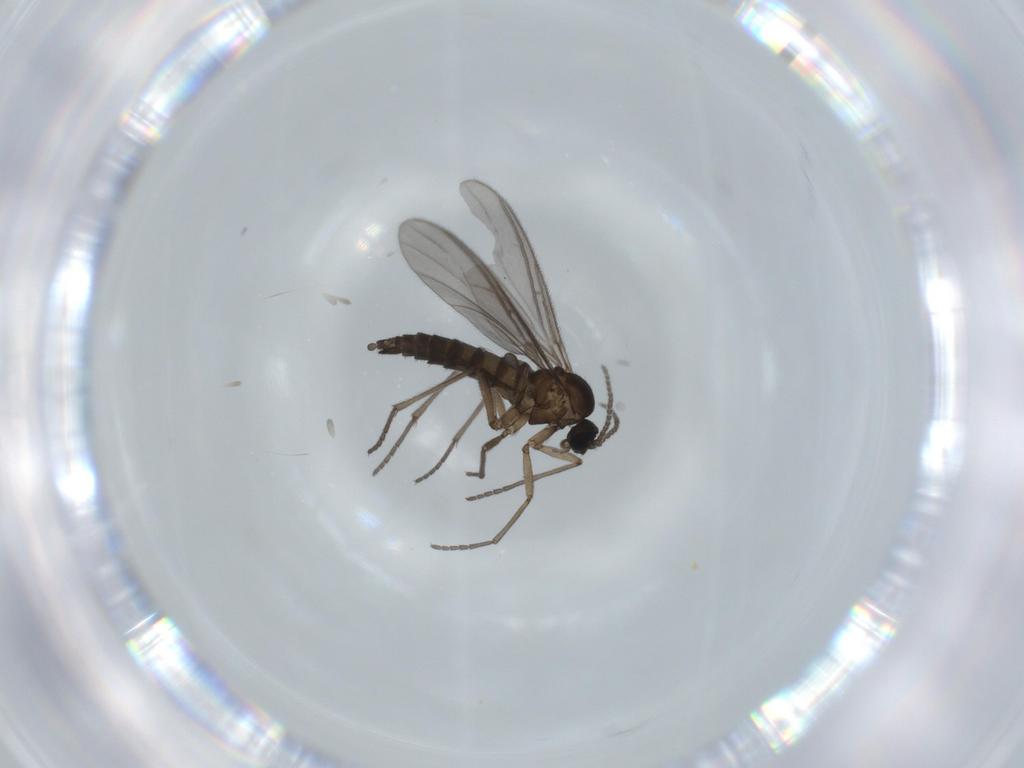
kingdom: Animalia
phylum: Arthropoda
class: Insecta
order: Diptera
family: Sciaridae
